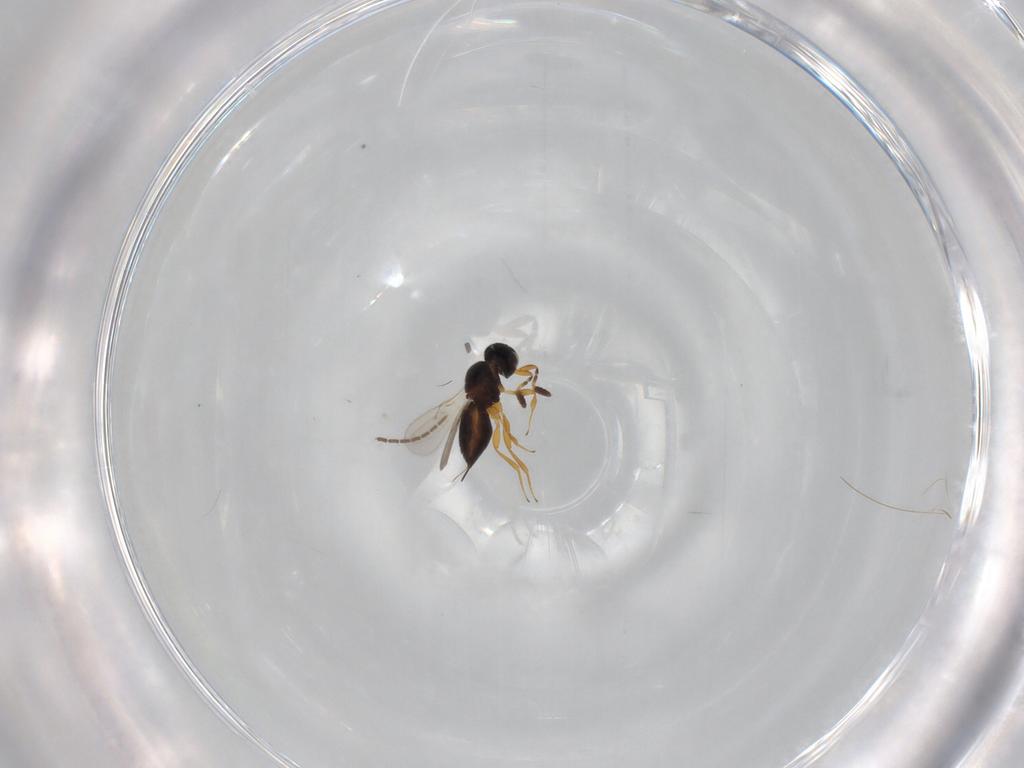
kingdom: Animalia
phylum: Arthropoda
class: Insecta
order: Hymenoptera
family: Scelionidae
